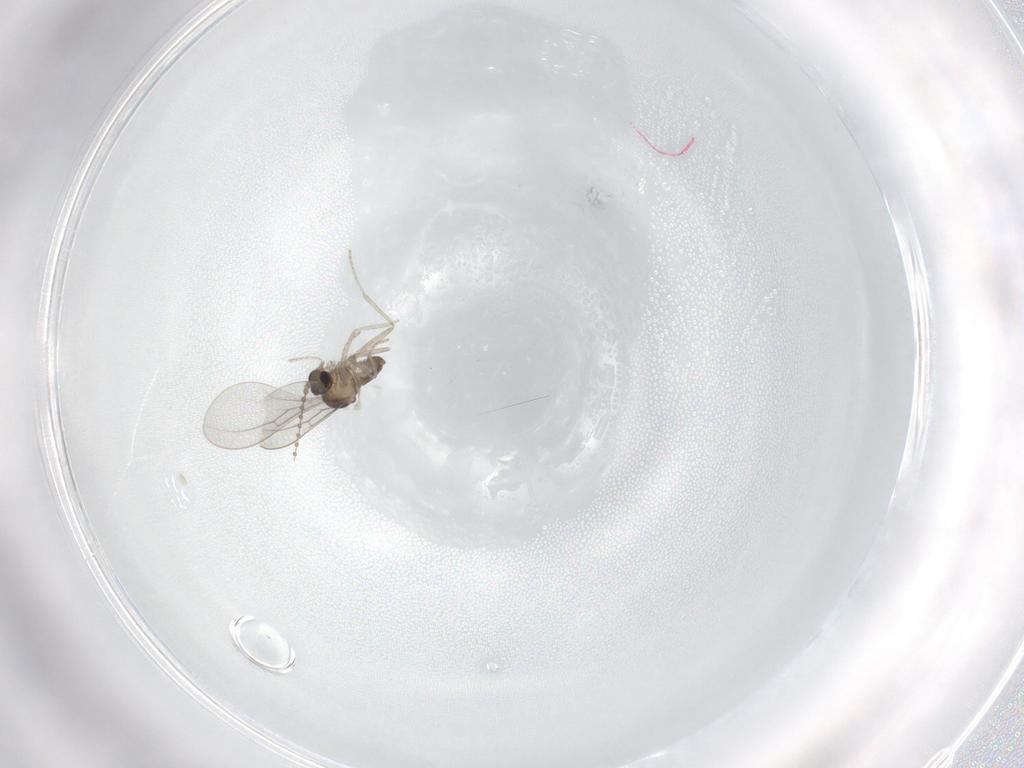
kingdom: Animalia
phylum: Arthropoda
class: Insecta
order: Diptera
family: Cecidomyiidae
